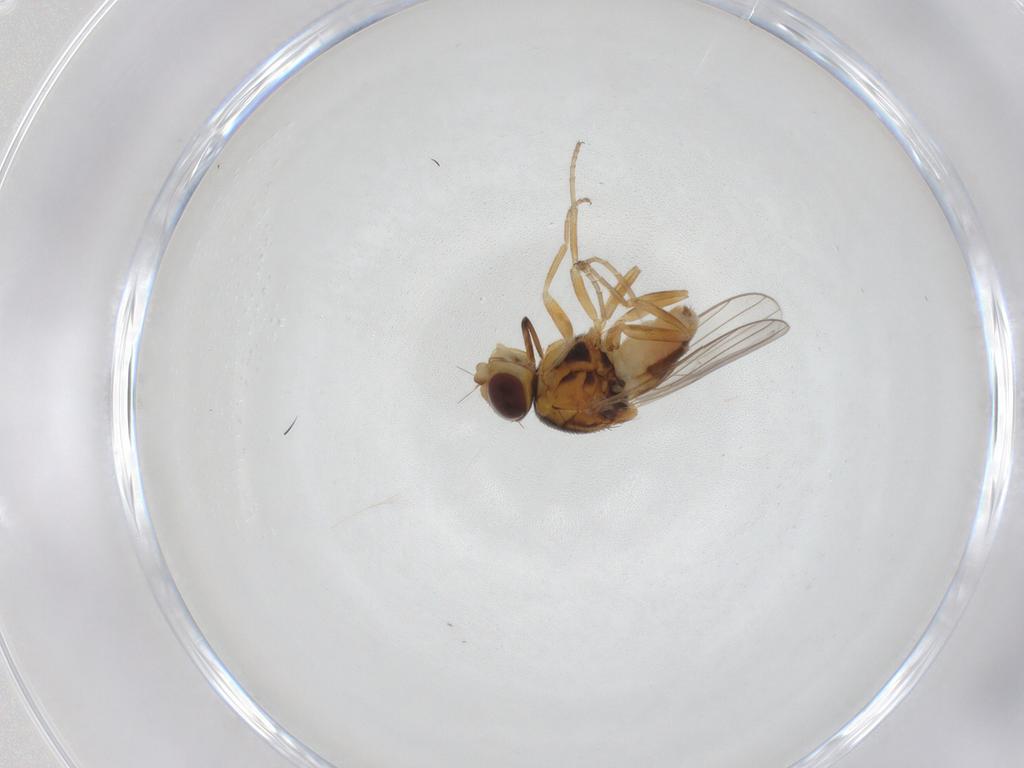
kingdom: Animalia
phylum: Arthropoda
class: Insecta
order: Diptera
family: Chloropidae
